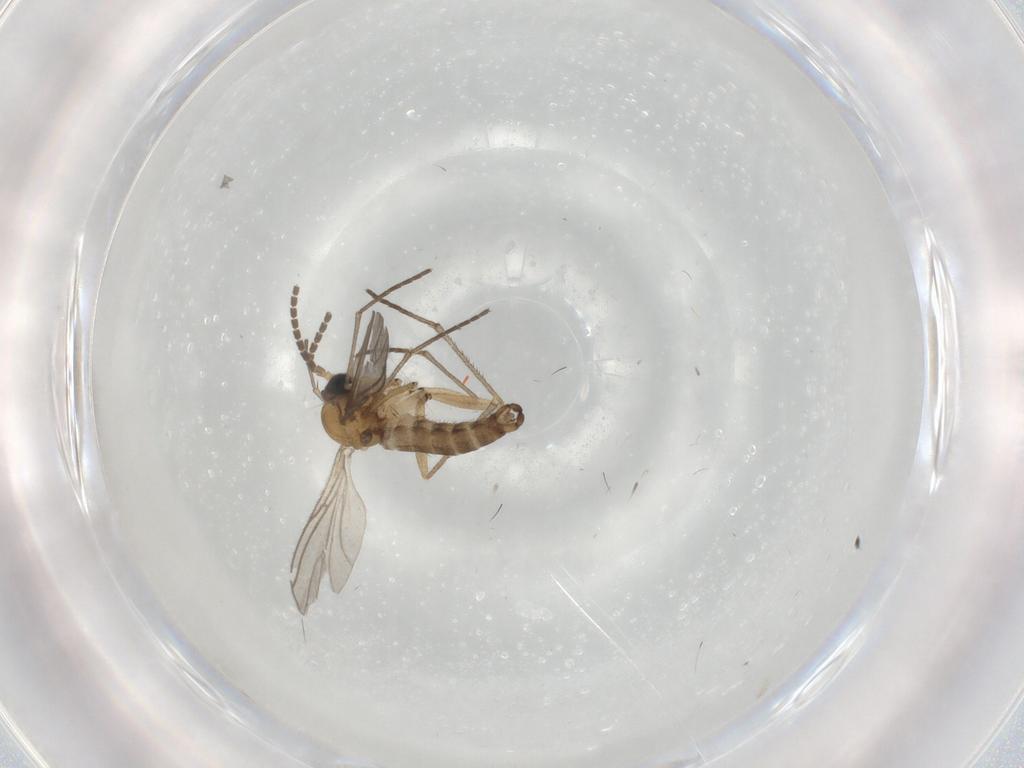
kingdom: Animalia
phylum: Arthropoda
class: Insecta
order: Diptera
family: Sciaridae
